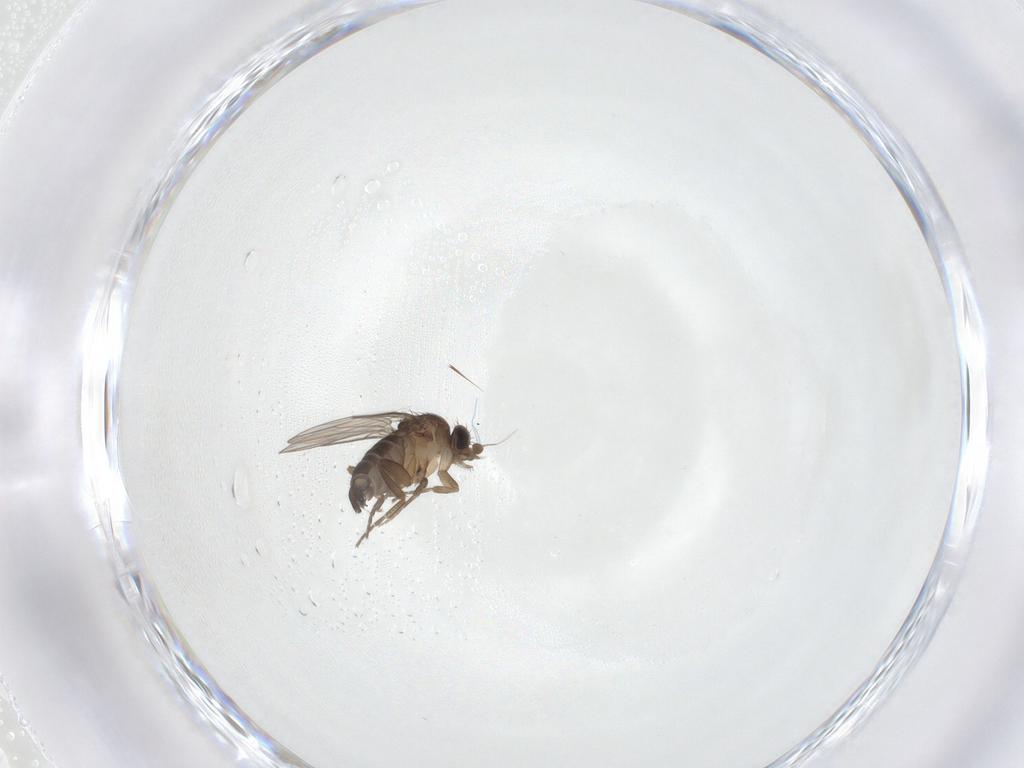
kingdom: Animalia
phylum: Arthropoda
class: Insecta
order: Diptera
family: Phoridae
